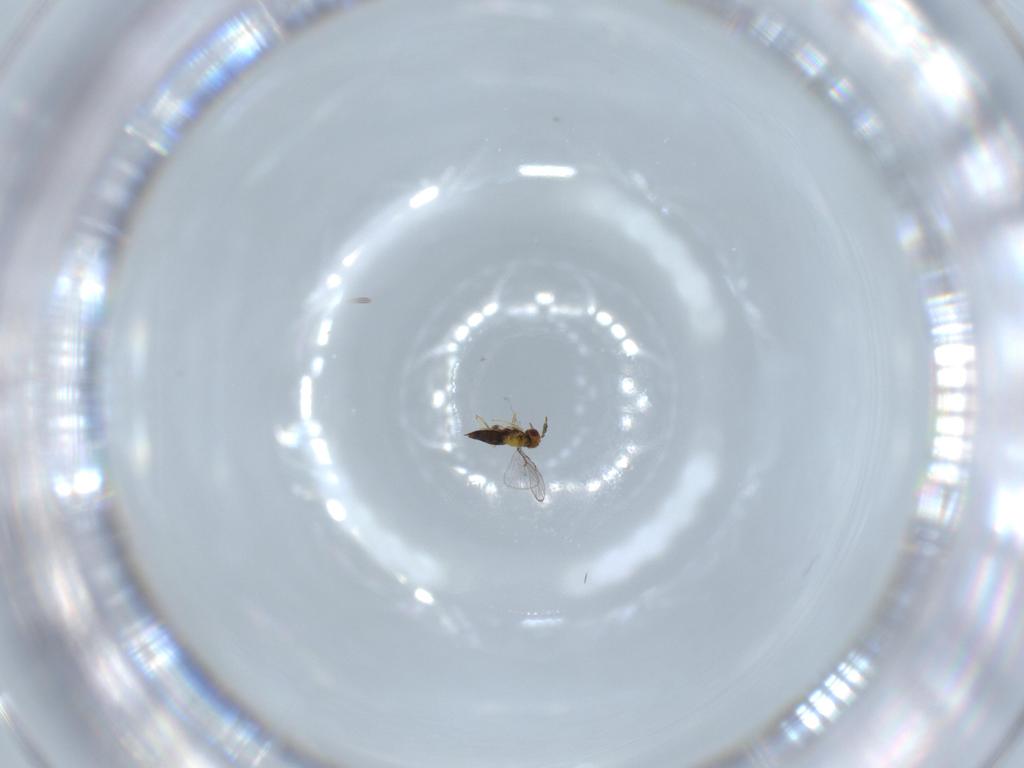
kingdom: Animalia
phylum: Arthropoda
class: Insecta
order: Hymenoptera
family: Trichogrammatidae
